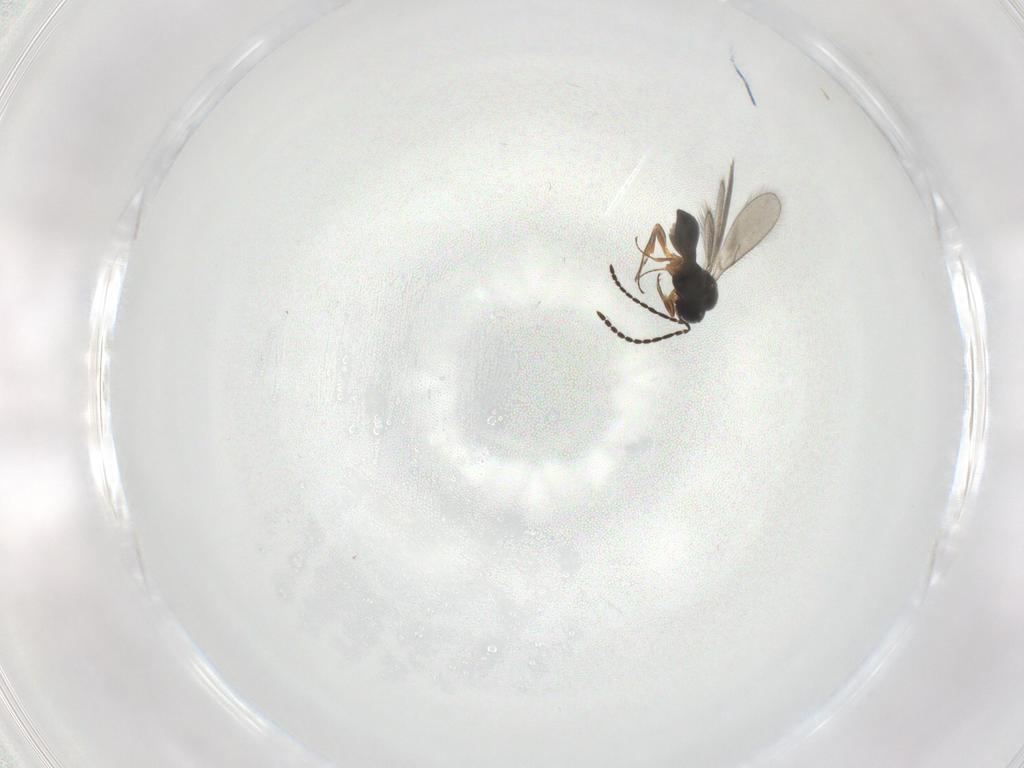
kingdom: Animalia
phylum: Arthropoda
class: Insecta
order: Hymenoptera
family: Scelionidae
